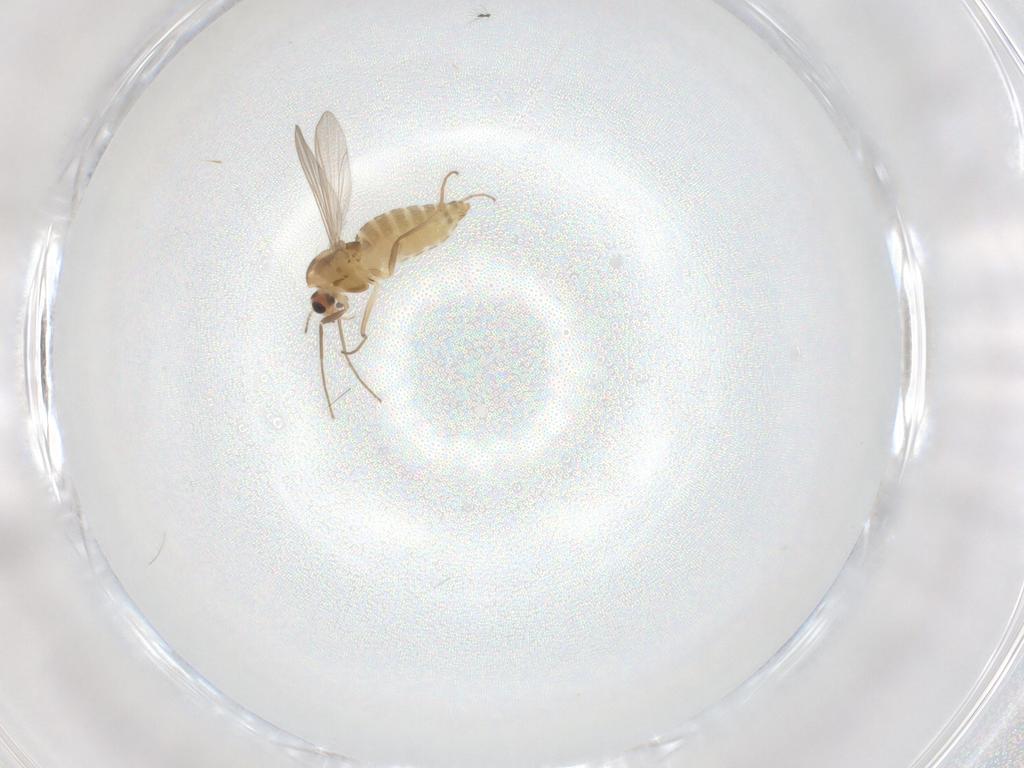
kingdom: Animalia
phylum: Arthropoda
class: Insecta
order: Diptera
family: Chironomidae
